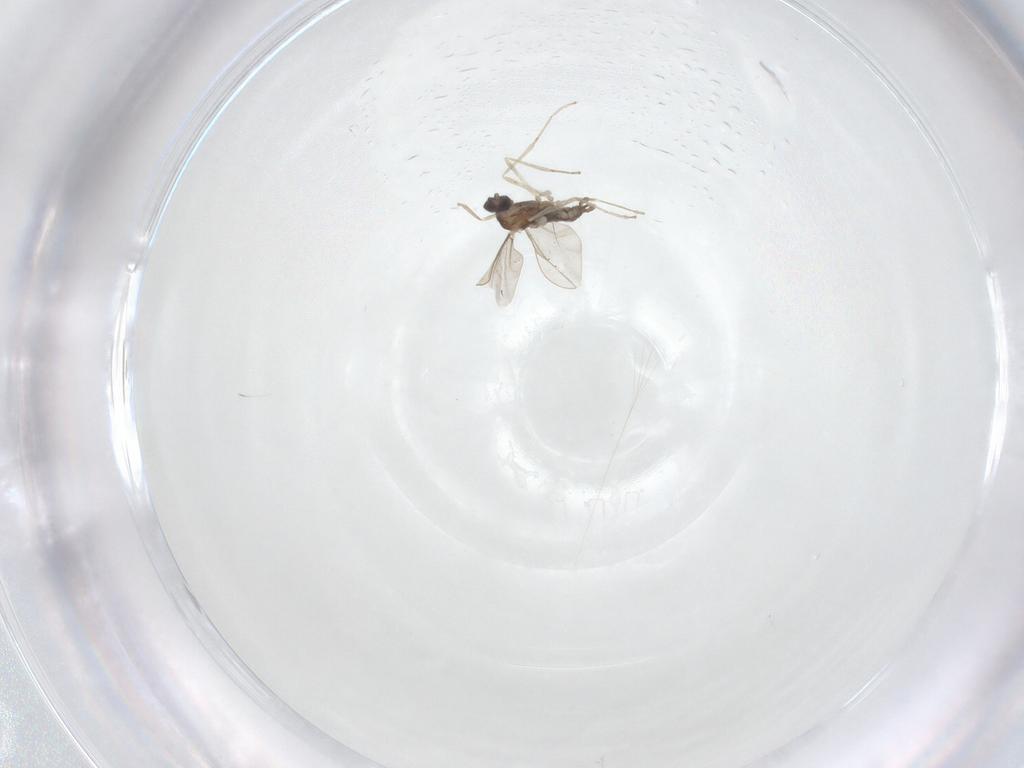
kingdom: Animalia
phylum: Arthropoda
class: Insecta
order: Diptera
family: Cecidomyiidae
